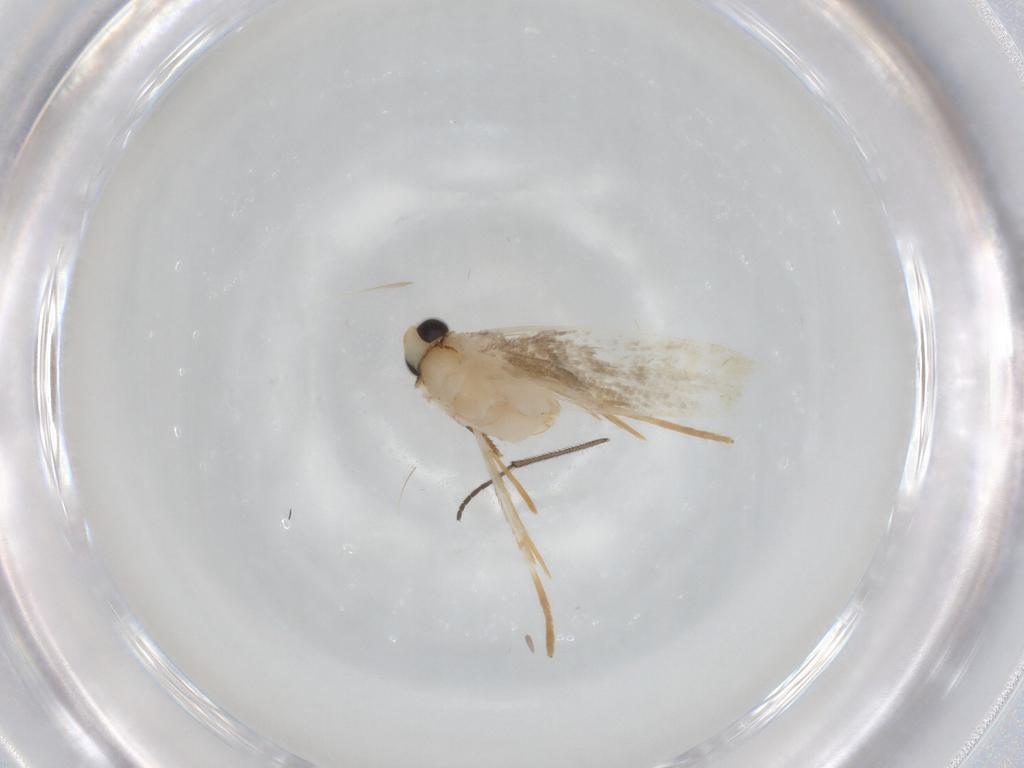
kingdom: Animalia
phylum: Arthropoda
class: Insecta
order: Lepidoptera
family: Tineidae
